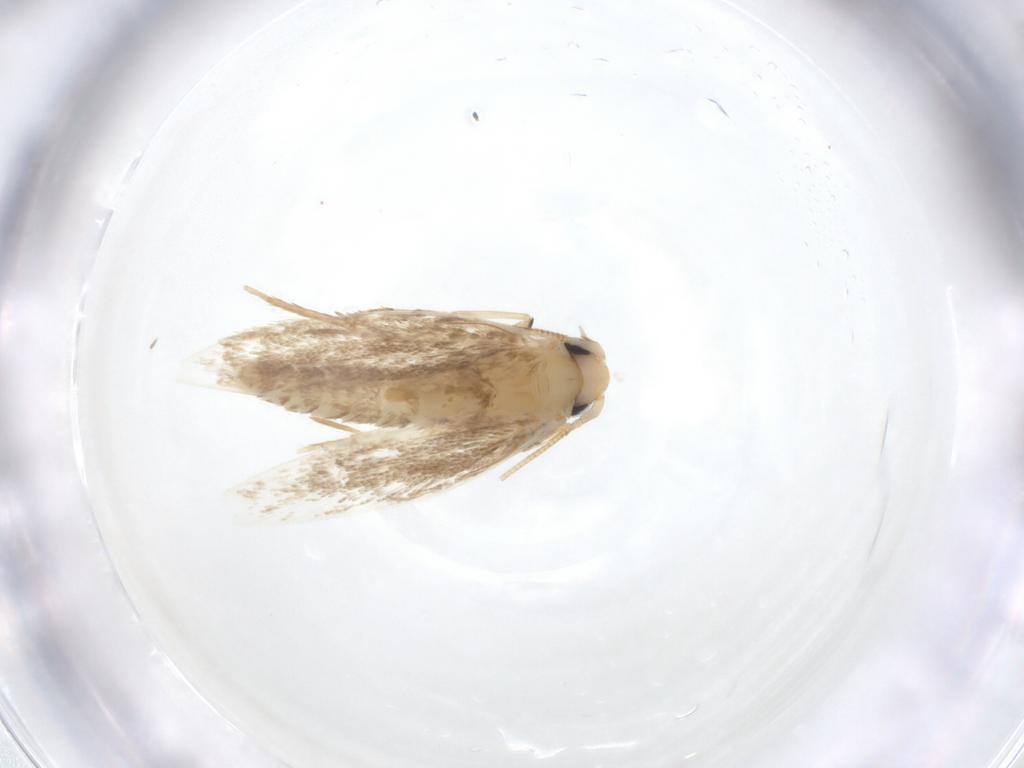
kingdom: Animalia
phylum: Arthropoda
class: Insecta
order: Lepidoptera
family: Tineidae
